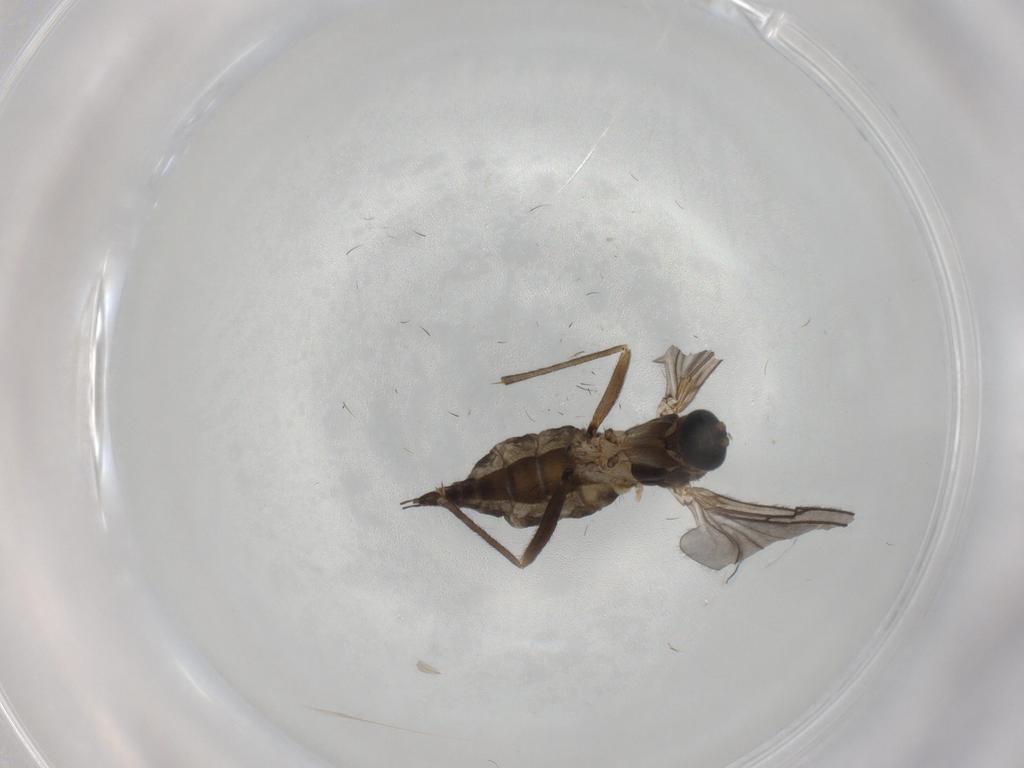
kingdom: Animalia
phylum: Arthropoda
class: Insecta
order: Diptera
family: Sciaridae
